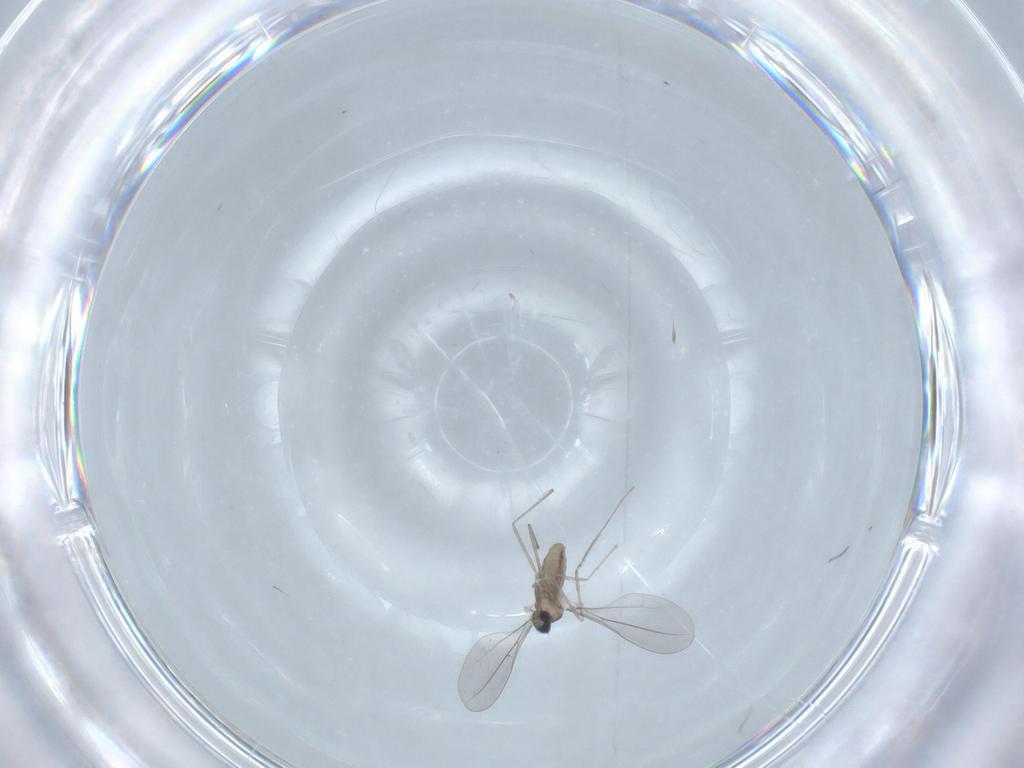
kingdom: Animalia
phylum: Arthropoda
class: Insecta
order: Diptera
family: Cecidomyiidae
